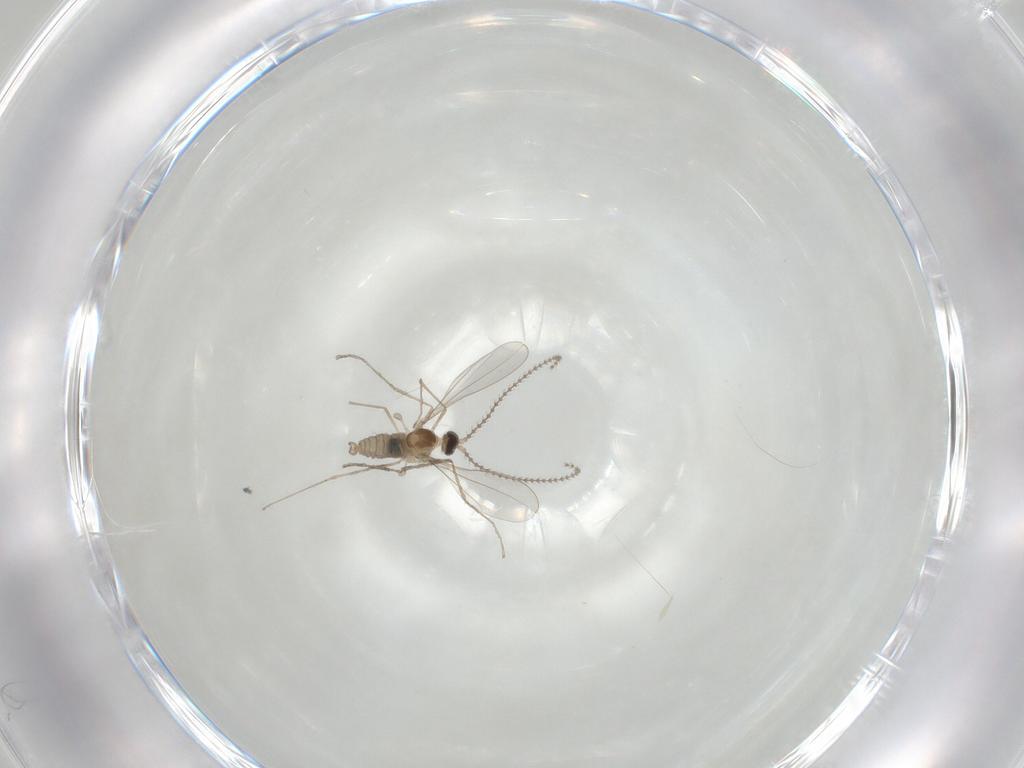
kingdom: Animalia
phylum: Arthropoda
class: Insecta
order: Diptera
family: Cecidomyiidae
